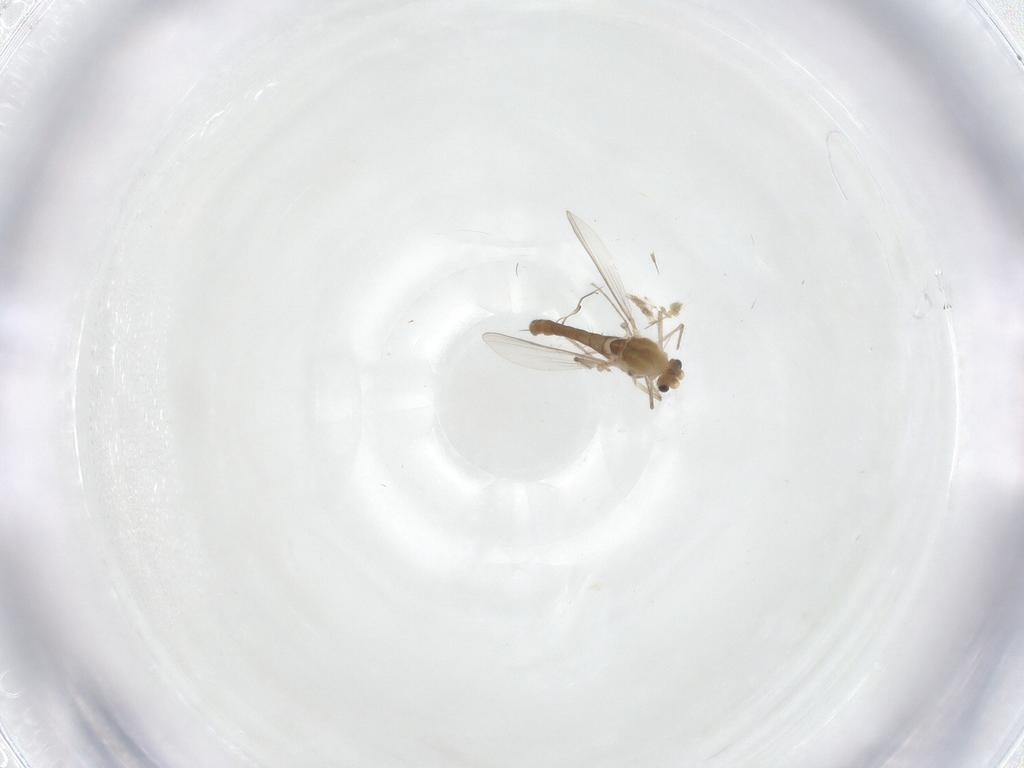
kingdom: Animalia
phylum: Arthropoda
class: Insecta
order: Diptera
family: Chironomidae
